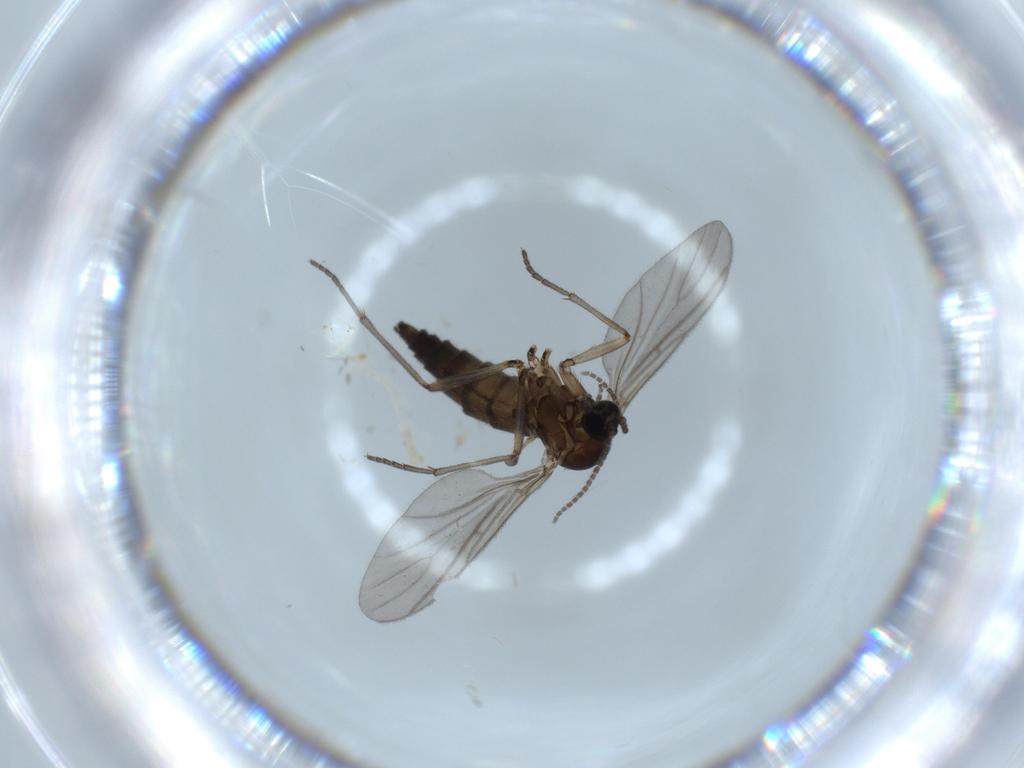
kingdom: Animalia
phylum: Arthropoda
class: Insecta
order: Diptera
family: Sciaridae
